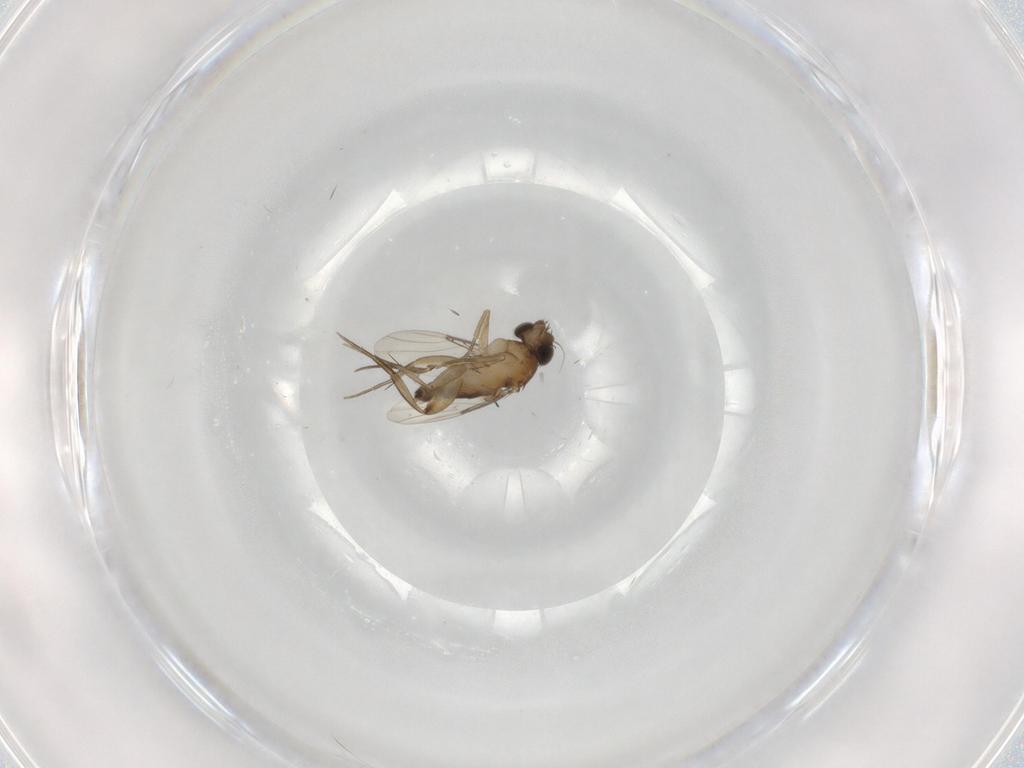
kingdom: Animalia
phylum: Arthropoda
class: Insecta
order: Diptera
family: Phoridae
